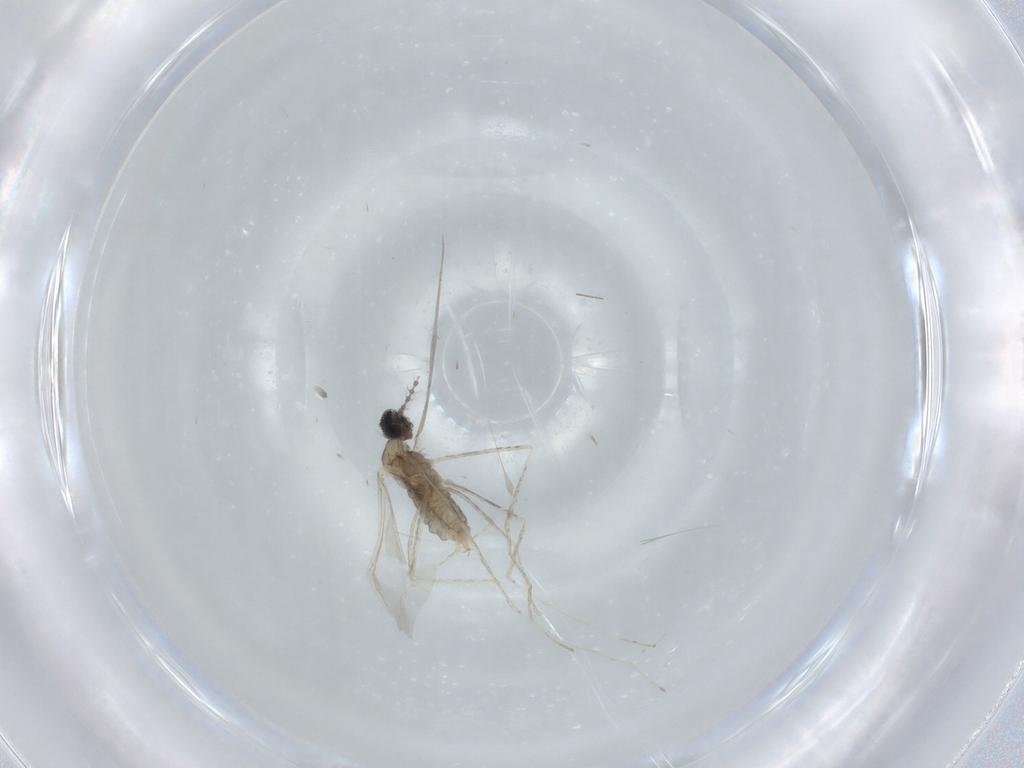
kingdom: Animalia
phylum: Arthropoda
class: Insecta
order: Diptera
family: Cecidomyiidae
